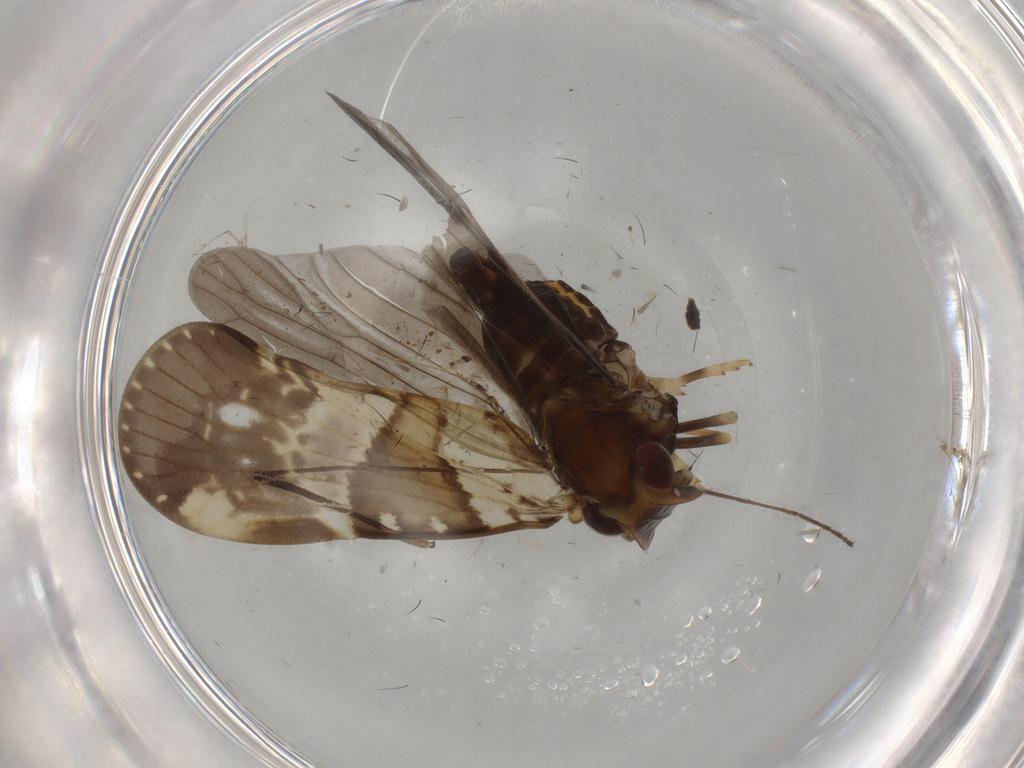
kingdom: Animalia
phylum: Arthropoda
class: Insecta
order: Hemiptera
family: Cixiidae
